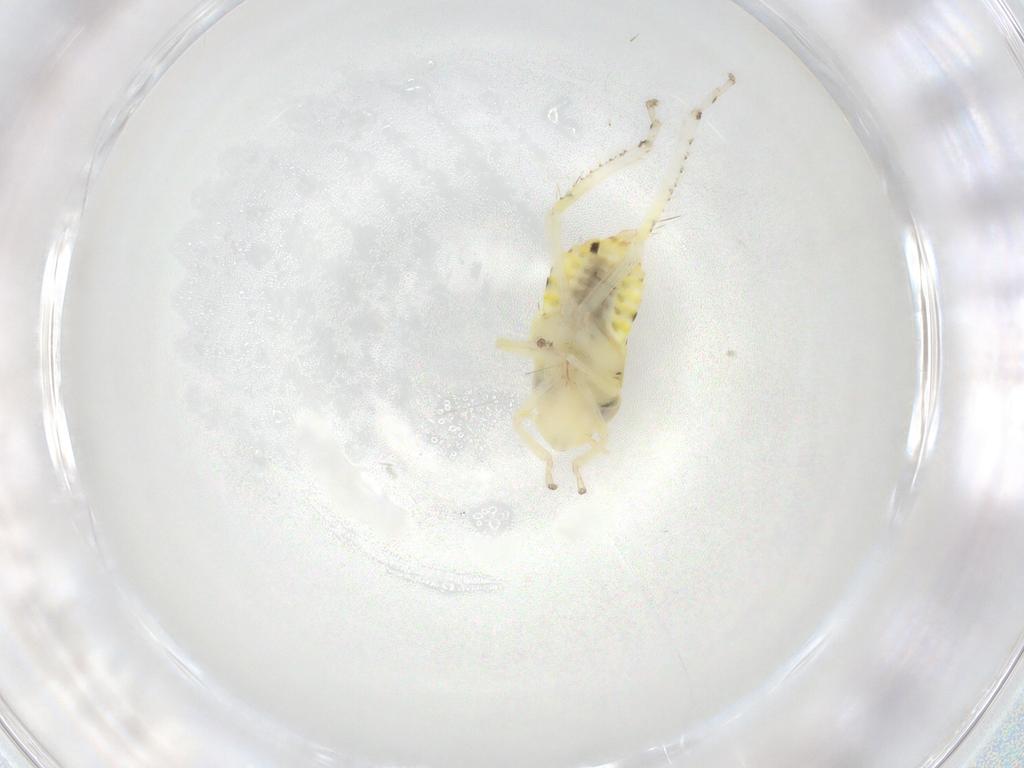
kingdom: Animalia
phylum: Arthropoda
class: Insecta
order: Hemiptera
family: Cicadellidae
